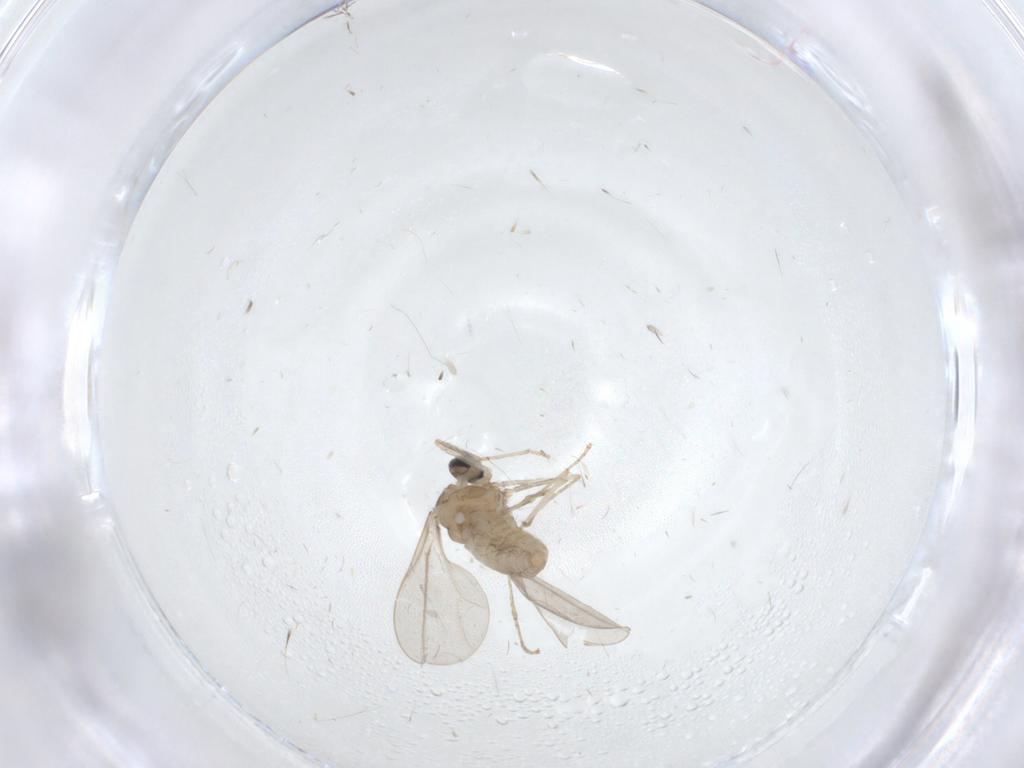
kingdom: Animalia
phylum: Arthropoda
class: Insecta
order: Diptera
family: Cecidomyiidae
